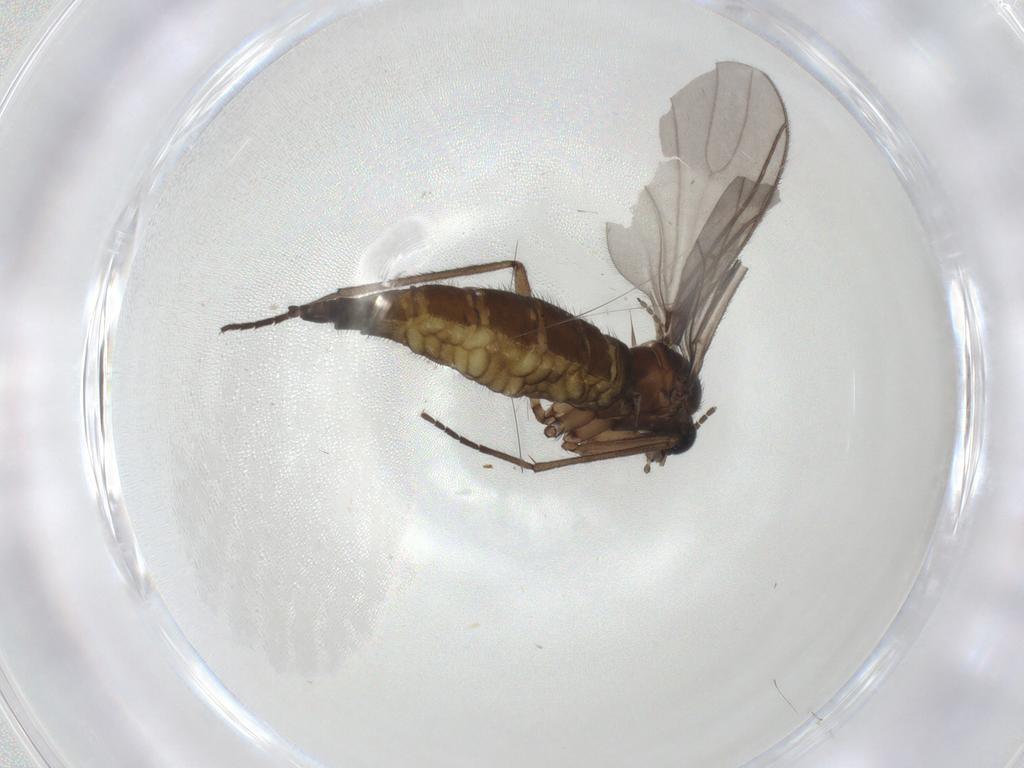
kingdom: Animalia
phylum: Arthropoda
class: Insecta
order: Diptera
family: Sciaridae
